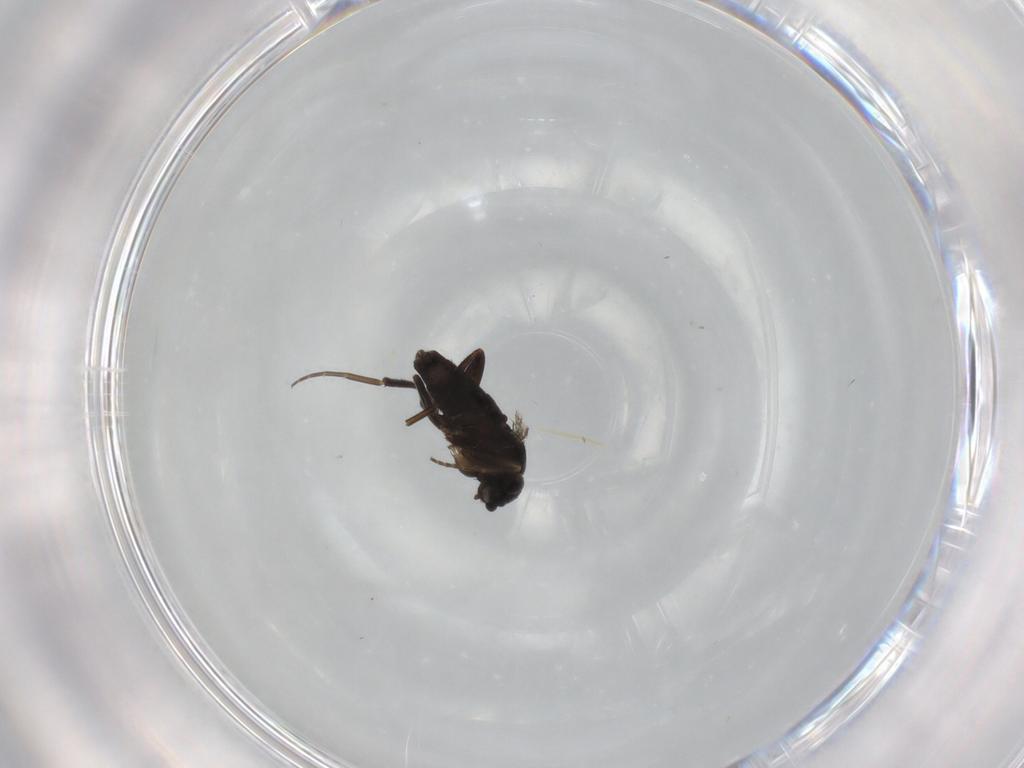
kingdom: Animalia
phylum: Arthropoda
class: Insecta
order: Diptera
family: Phoridae
